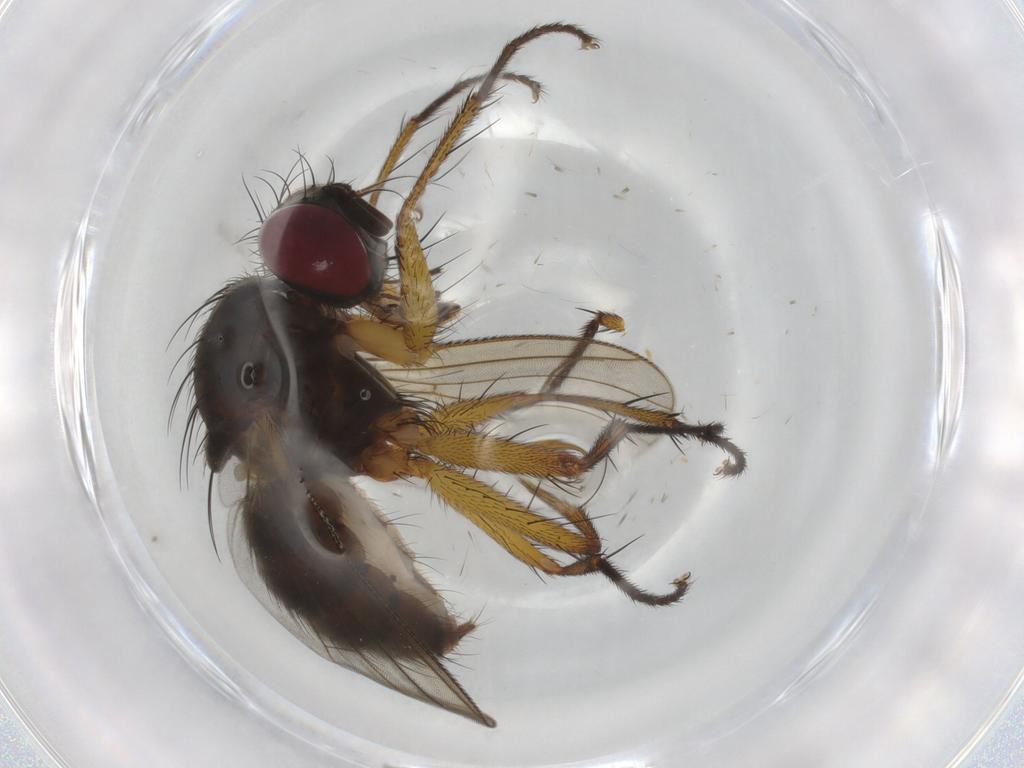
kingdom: Animalia
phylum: Arthropoda
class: Insecta
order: Diptera
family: Muscidae
